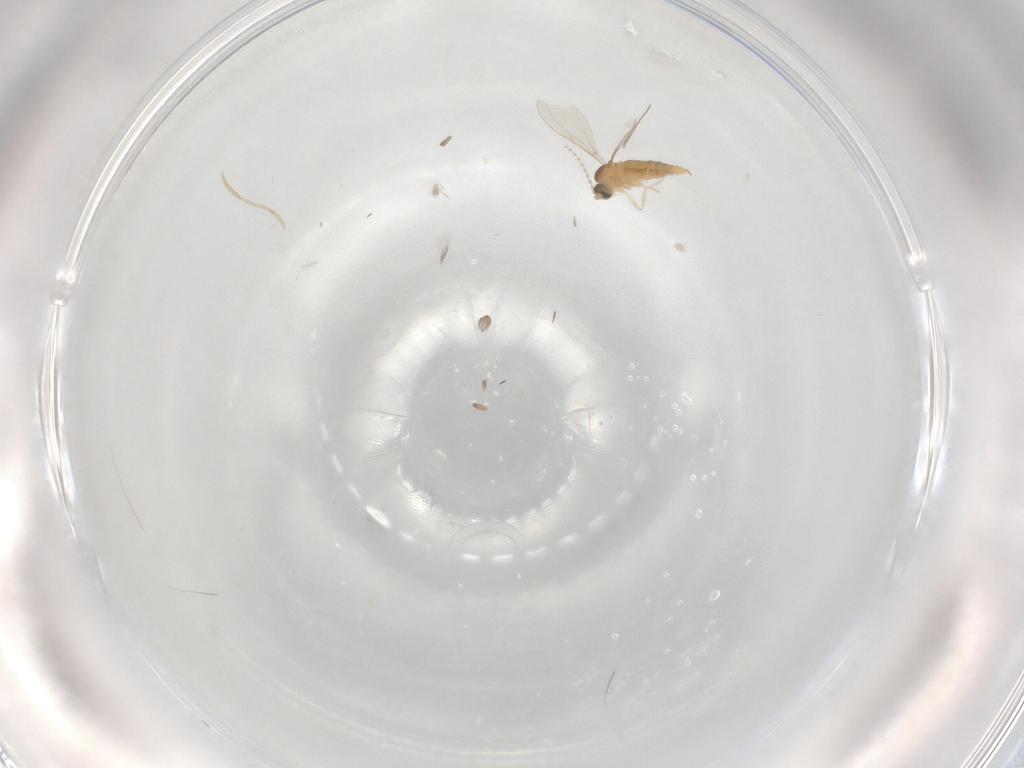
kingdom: Animalia
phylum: Arthropoda
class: Insecta
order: Diptera
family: Cecidomyiidae
